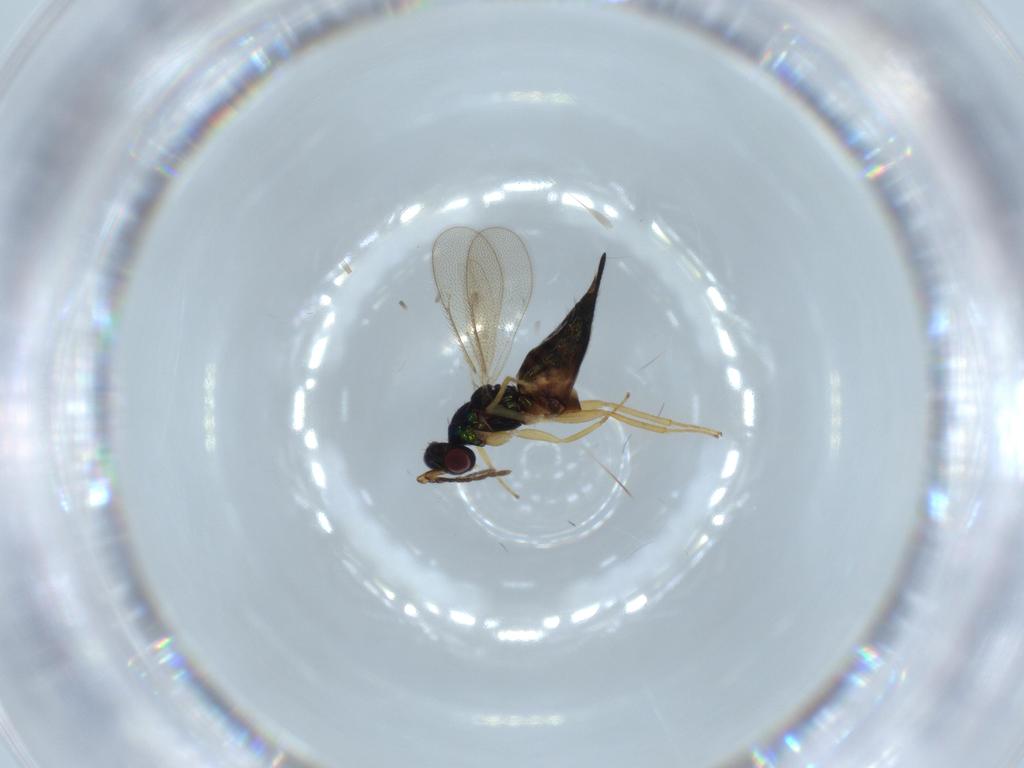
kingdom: Animalia
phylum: Arthropoda
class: Insecta
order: Hymenoptera
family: Eulophidae
